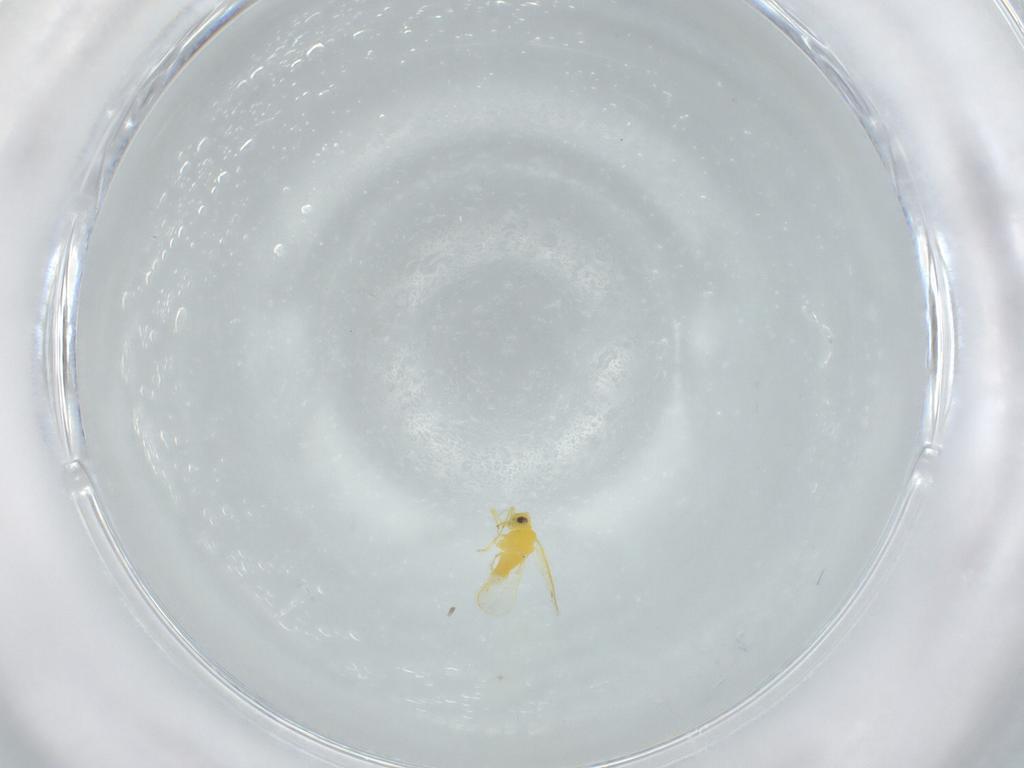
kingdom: Animalia
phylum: Arthropoda
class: Insecta
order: Hemiptera
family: Aleyrodidae
